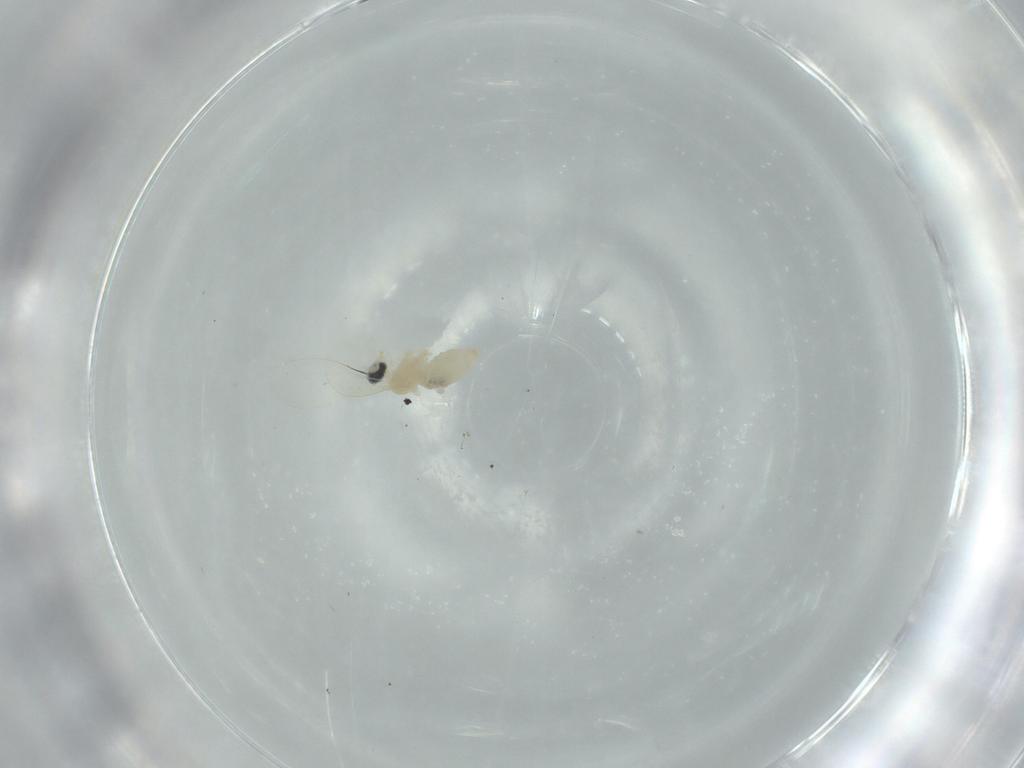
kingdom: Animalia
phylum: Arthropoda
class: Insecta
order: Diptera
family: Cecidomyiidae
